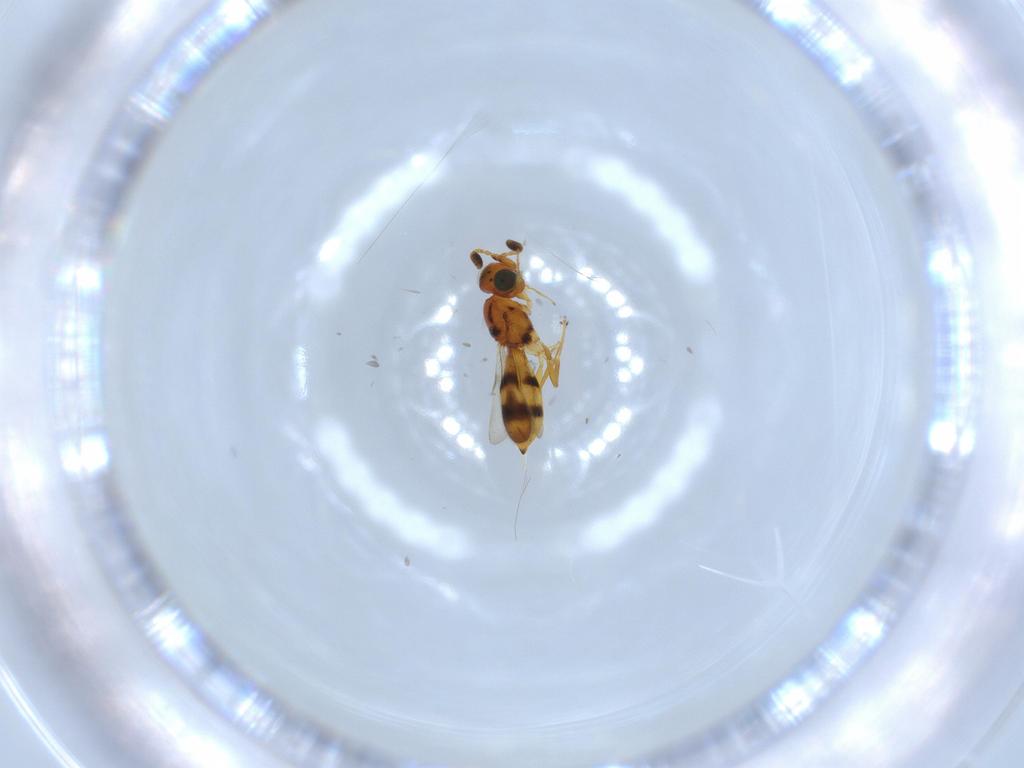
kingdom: Animalia
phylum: Arthropoda
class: Insecta
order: Hymenoptera
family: Scelionidae
